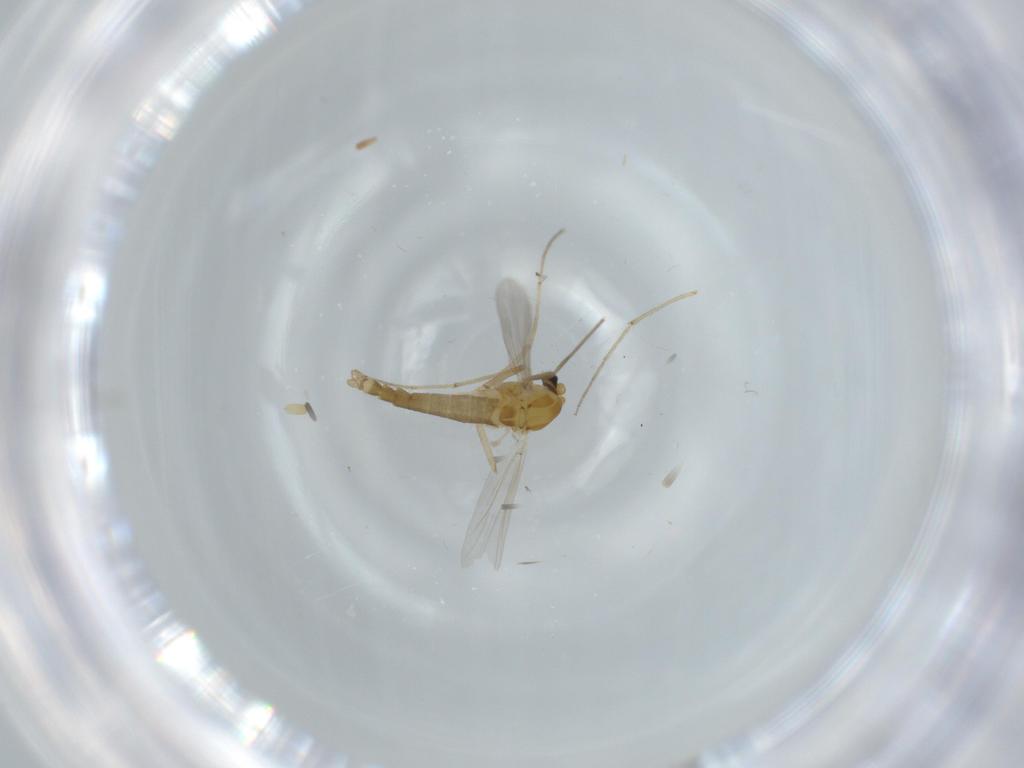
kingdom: Animalia
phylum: Arthropoda
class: Insecta
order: Diptera
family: Chironomidae
